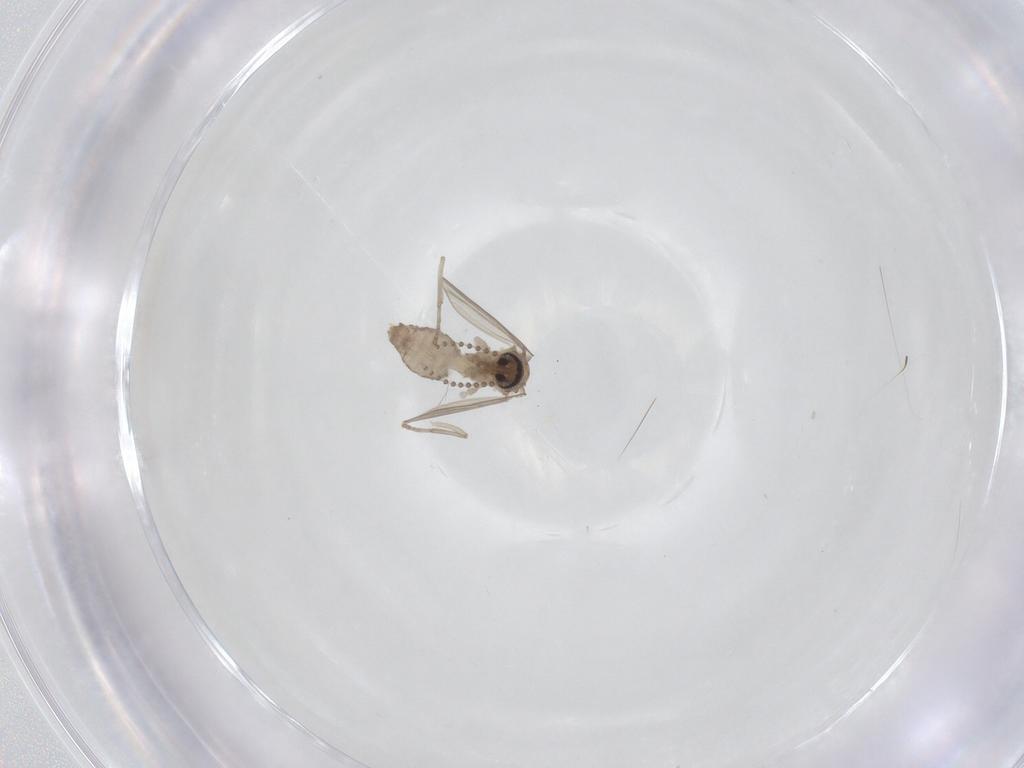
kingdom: Animalia
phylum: Arthropoda
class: Insecta
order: Diptera
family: Psychodidae
